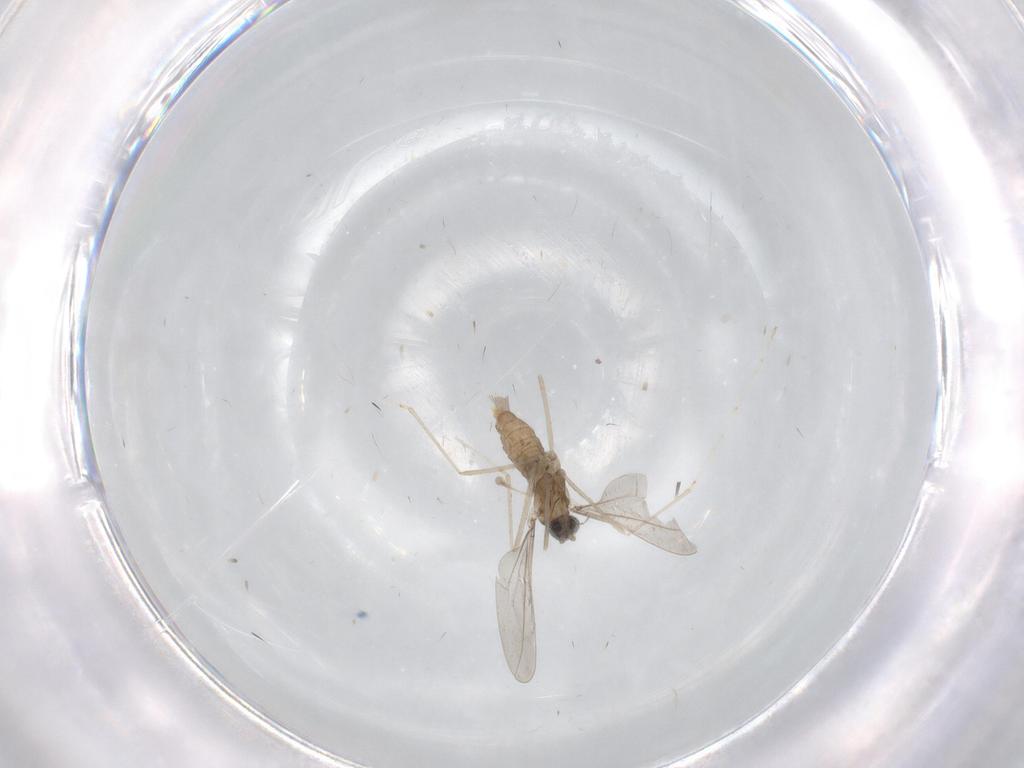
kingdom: Animalia
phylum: Arthropoda
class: Insecta
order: Diptera
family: Cecidomyiidae
